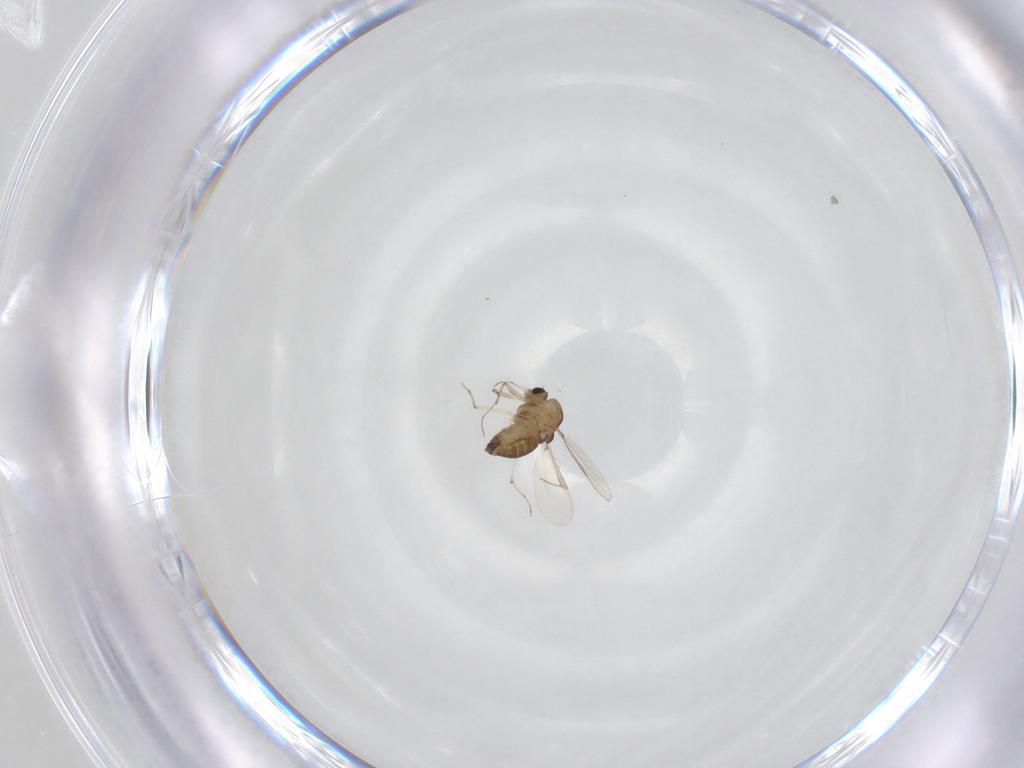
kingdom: Animalia
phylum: Arthropoda
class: Insecta
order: Diptera
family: Chironomidae
